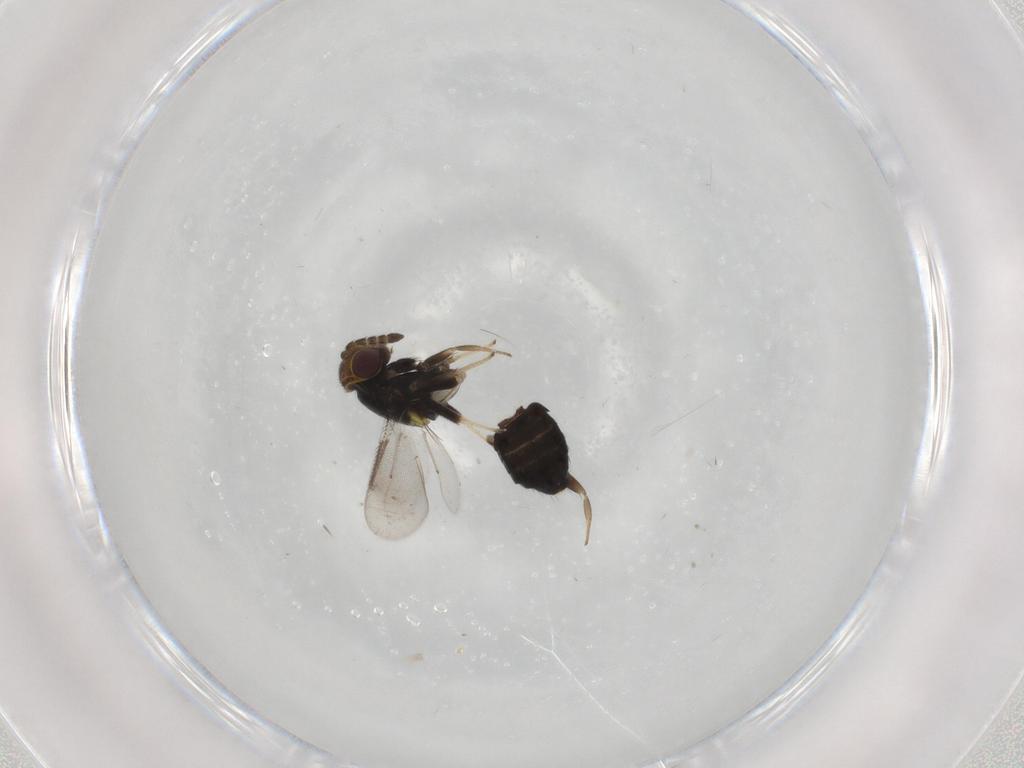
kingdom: Animalia
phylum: Arthropoda
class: Insecta
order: Hymenoptera
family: Aphelinidae
